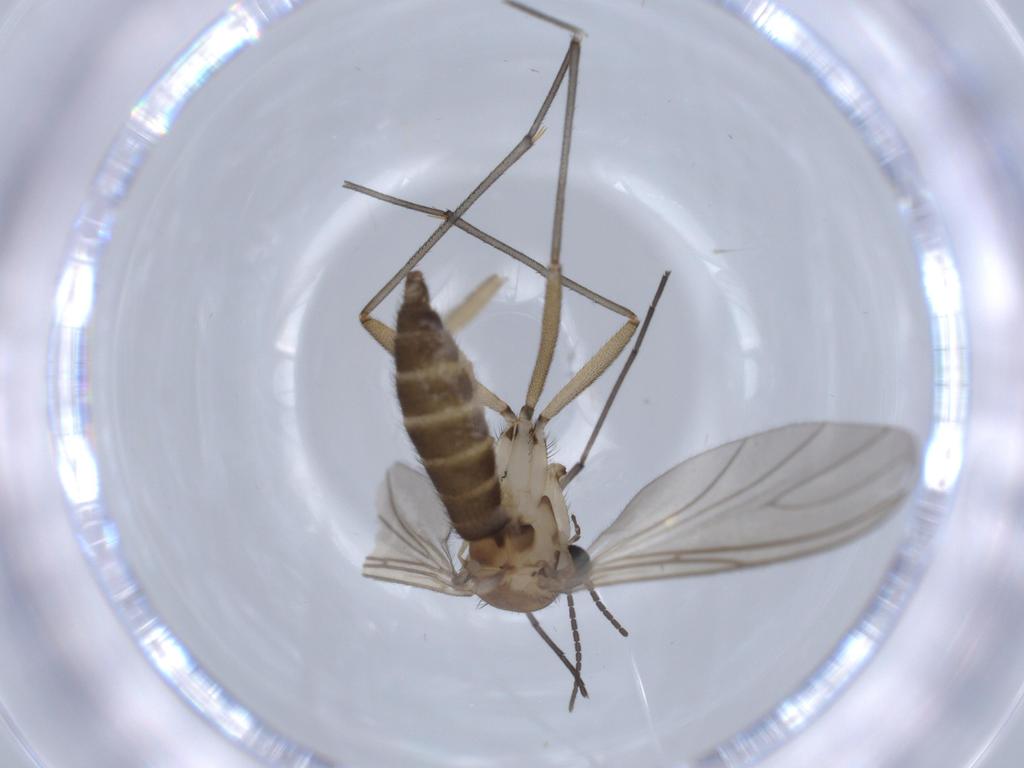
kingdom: Animalia
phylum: Arthropoda
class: Insecta
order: Diptera
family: Sciaridae
